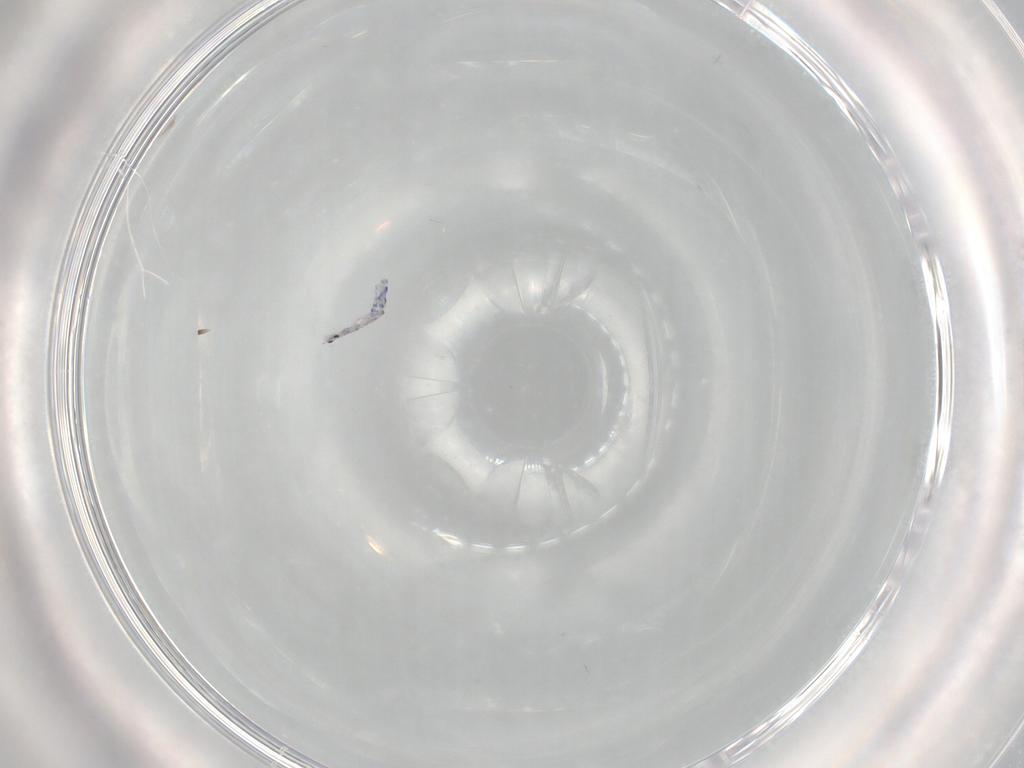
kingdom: Animalia
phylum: Arthropoda
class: Collembola
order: Entomobryomorpha
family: Entomobryidae
